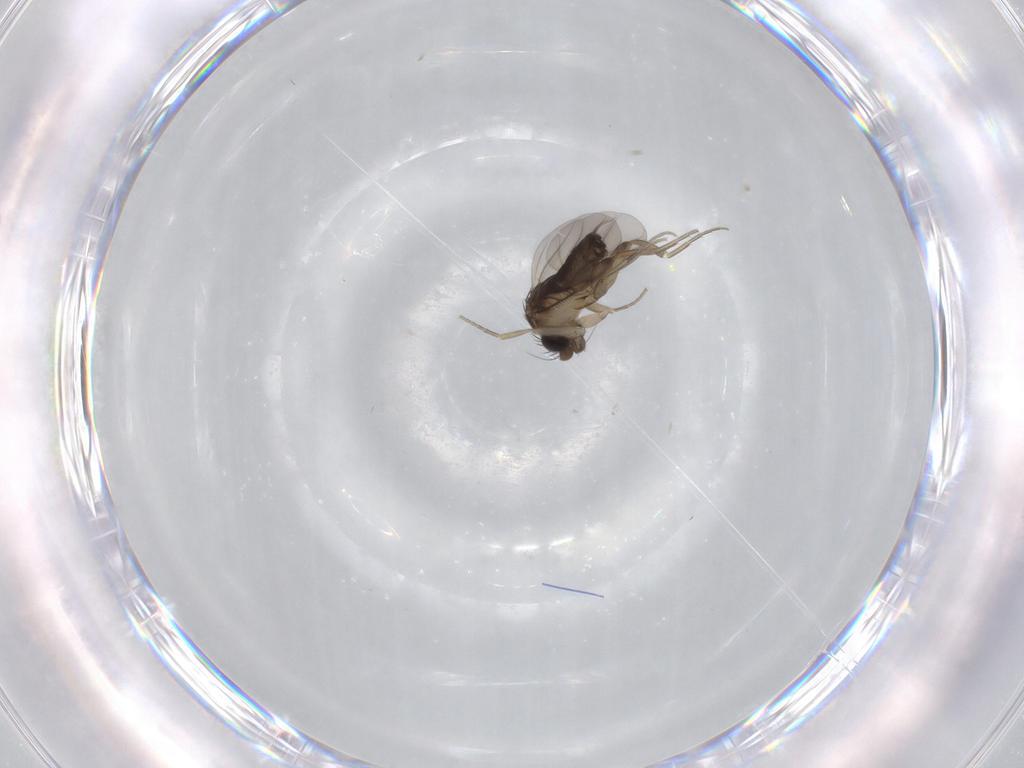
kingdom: Animalia
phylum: Arthropoda
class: Insecta
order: Diptera
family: Phoridae
